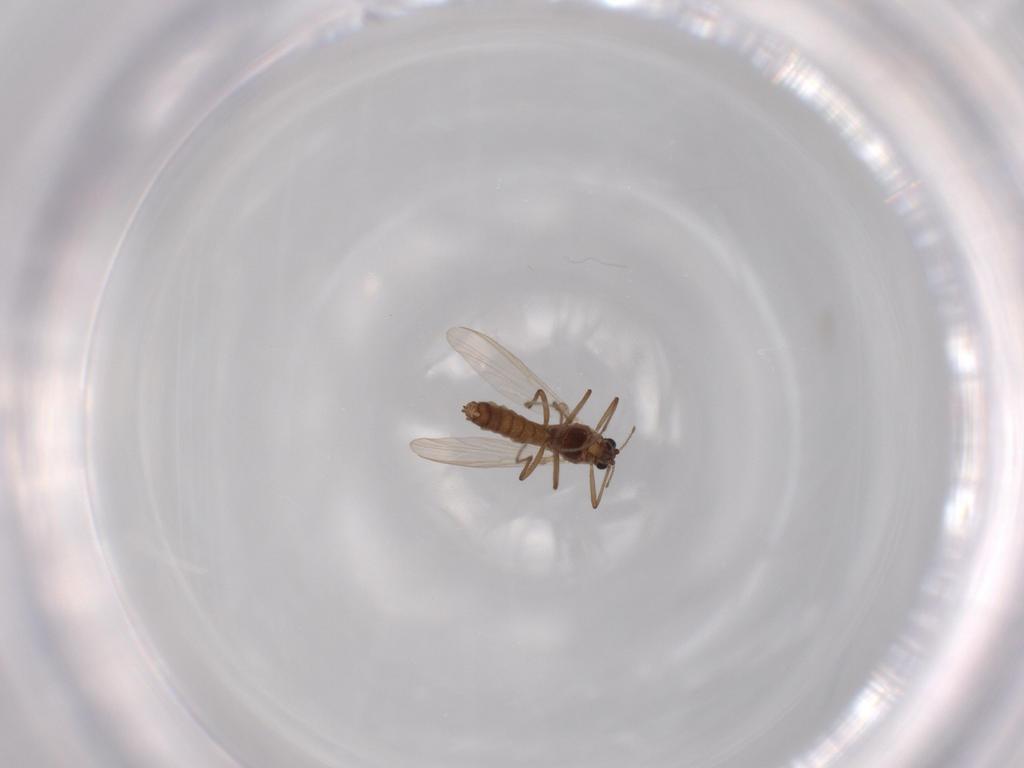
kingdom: Animalia
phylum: Arthropoda
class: Insecta
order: Diptera
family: Chironomidae
